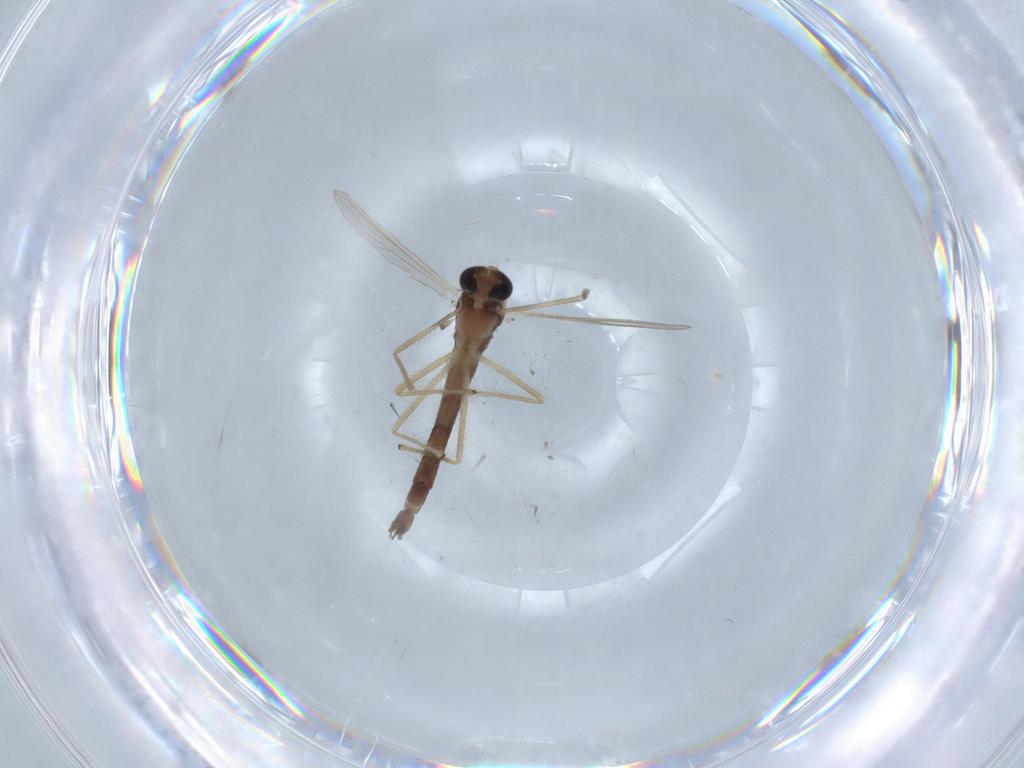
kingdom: Animalia
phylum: Arthropoda
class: Insecta
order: Diptera
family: Chironomidae
